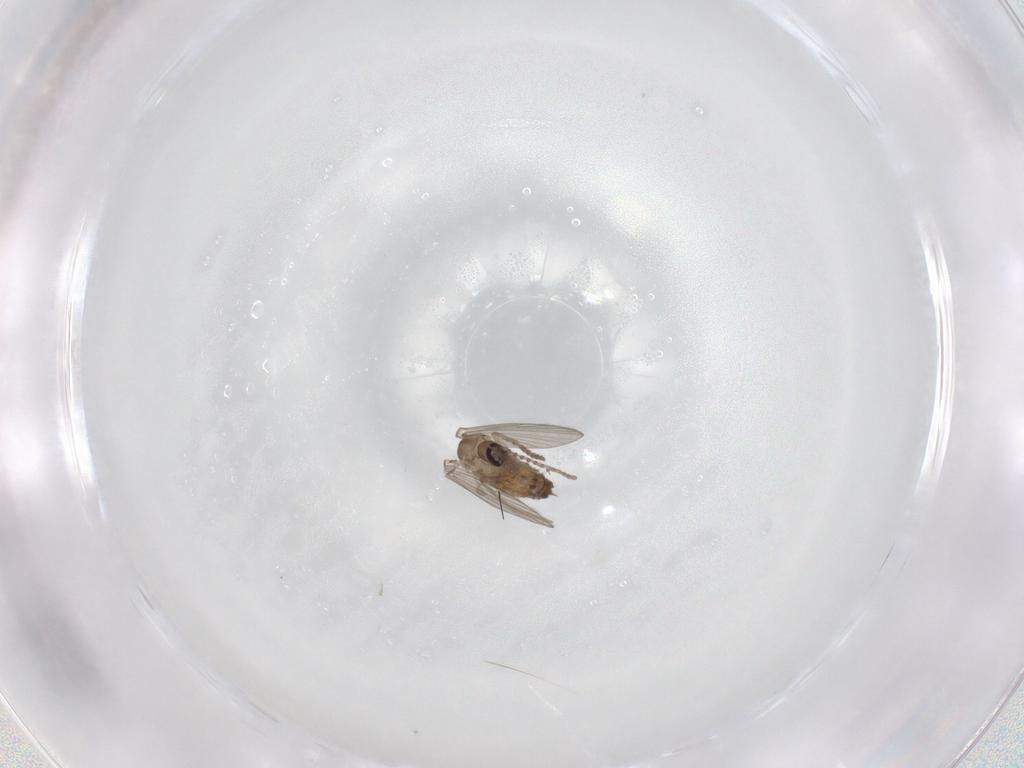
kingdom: Animalia
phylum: Arthropoda
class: Insecta
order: Diptera
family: Psychodidae
